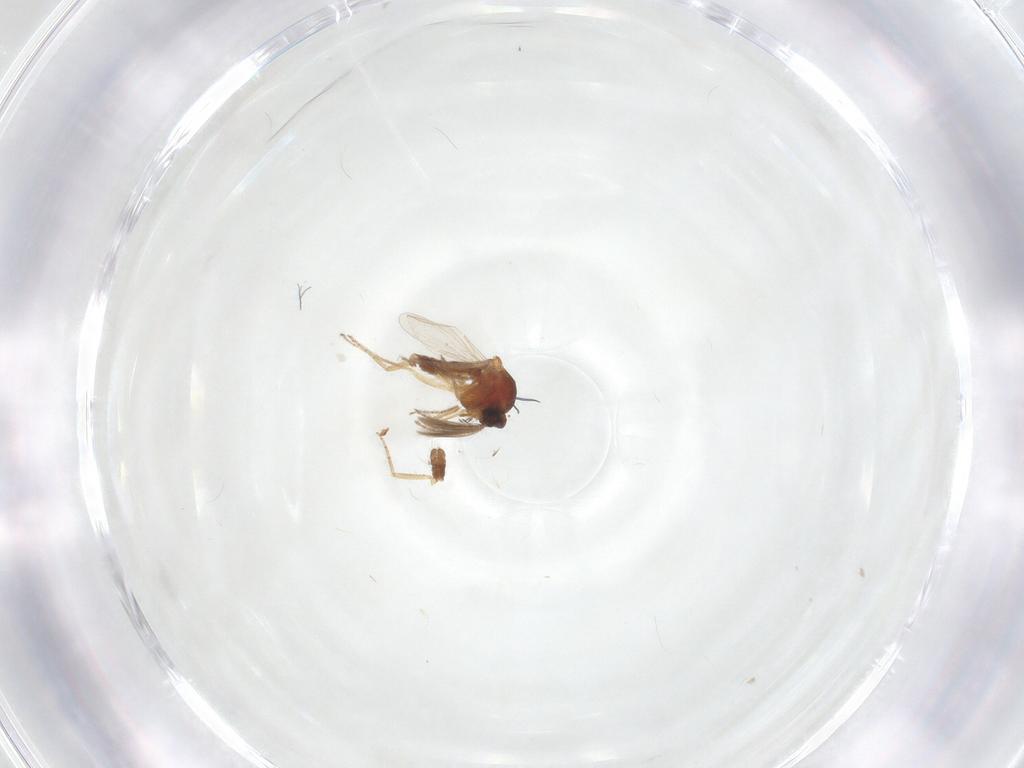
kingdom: Animalia
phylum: Arthropoda
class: Insecta
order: Diptera
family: Ceratopogonidae
